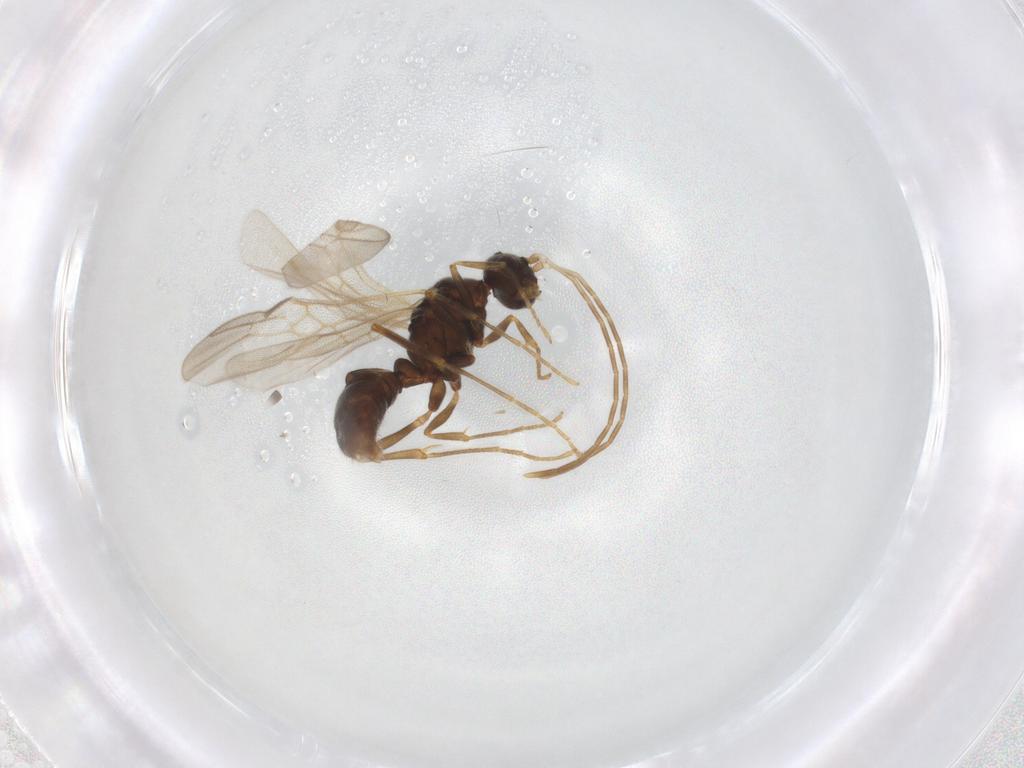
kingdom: Animalia
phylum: Arthropoda
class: Insecta
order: Hymenoptera
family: Formicidae
